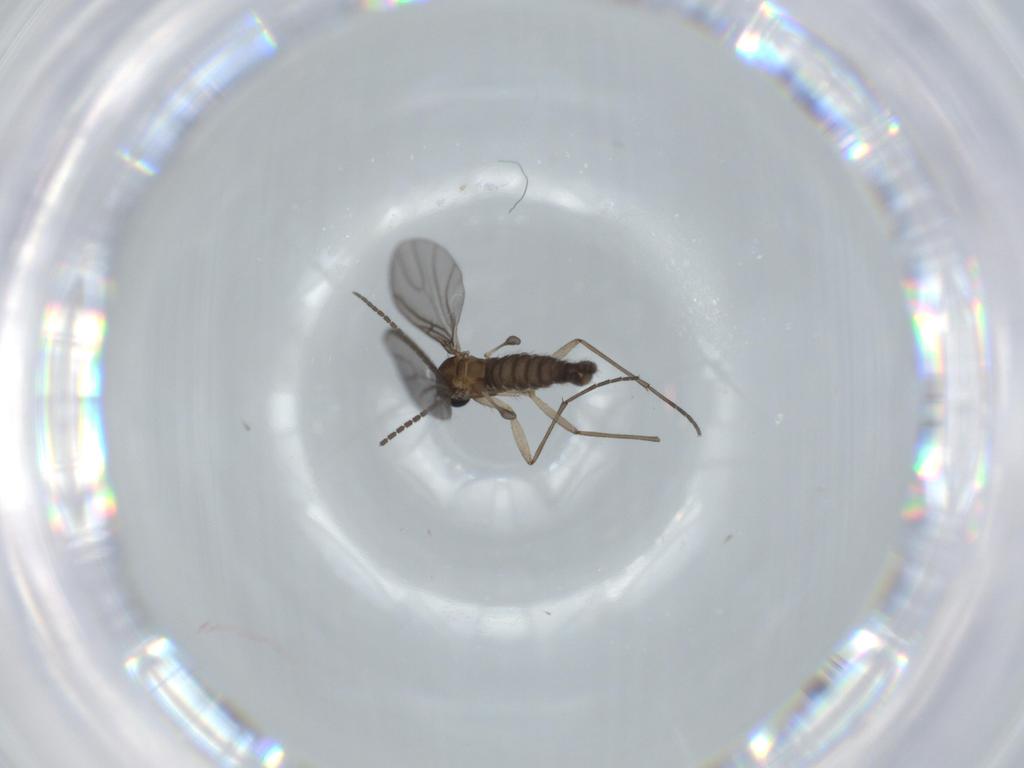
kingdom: Animalia
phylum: Arthropoda
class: Insecta
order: Diptera
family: Sciaridae
